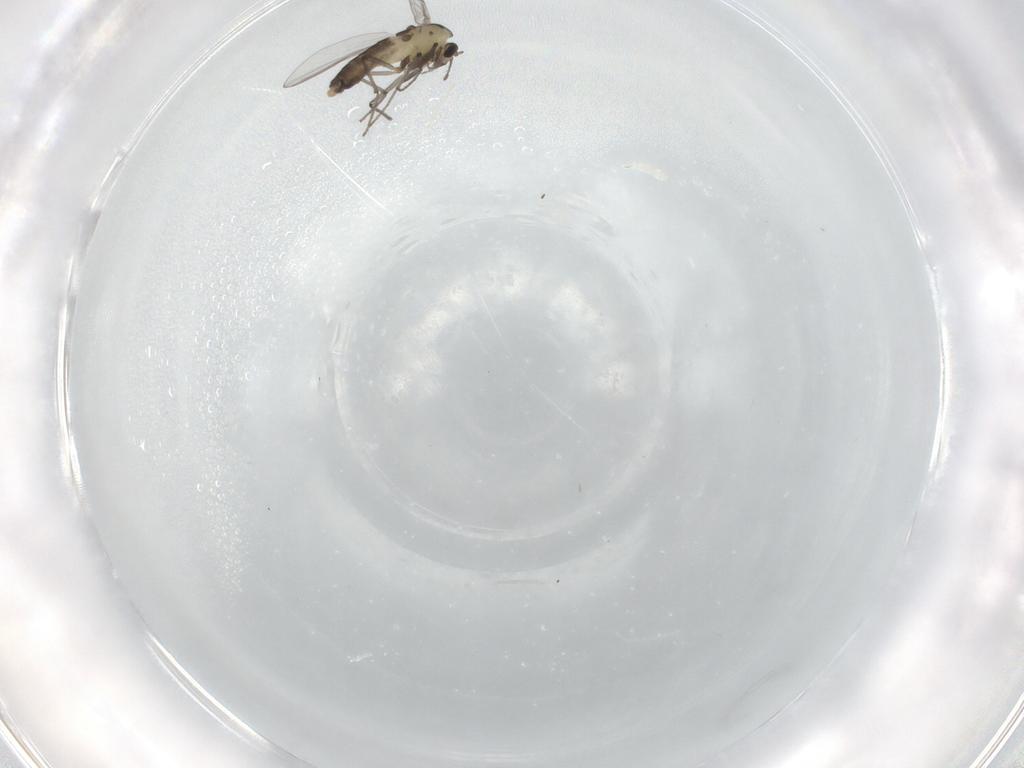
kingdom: Animalia
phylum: Arthropoda
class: Insecta
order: Diptera
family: Chironomidae
